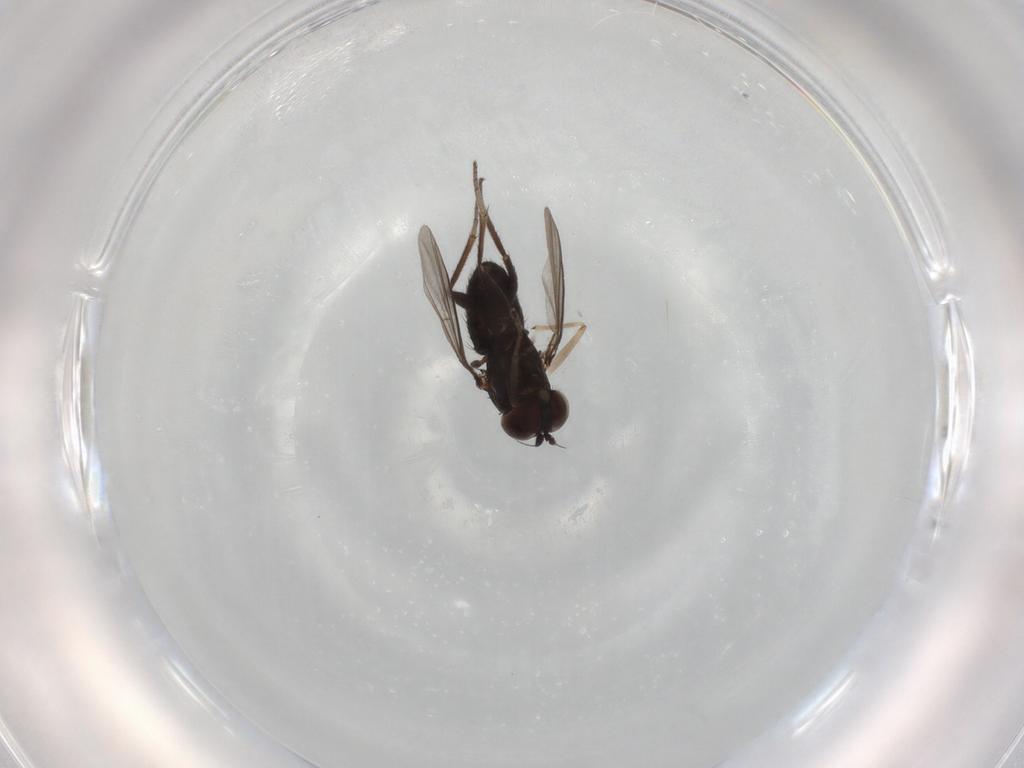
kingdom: Animalia
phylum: Arthropoda
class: Insecta
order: Diptera
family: Dolichopodidae
